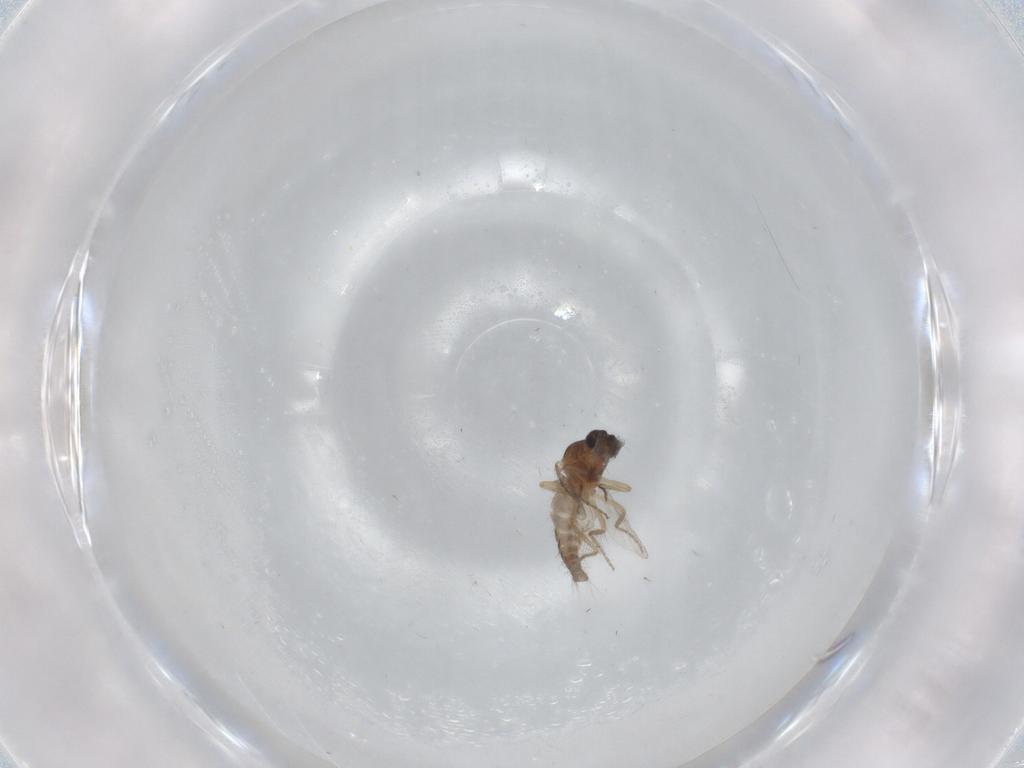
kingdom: Animalia
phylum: Arthropoda
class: Insecta
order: Diptera
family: Ceratopogonidae
